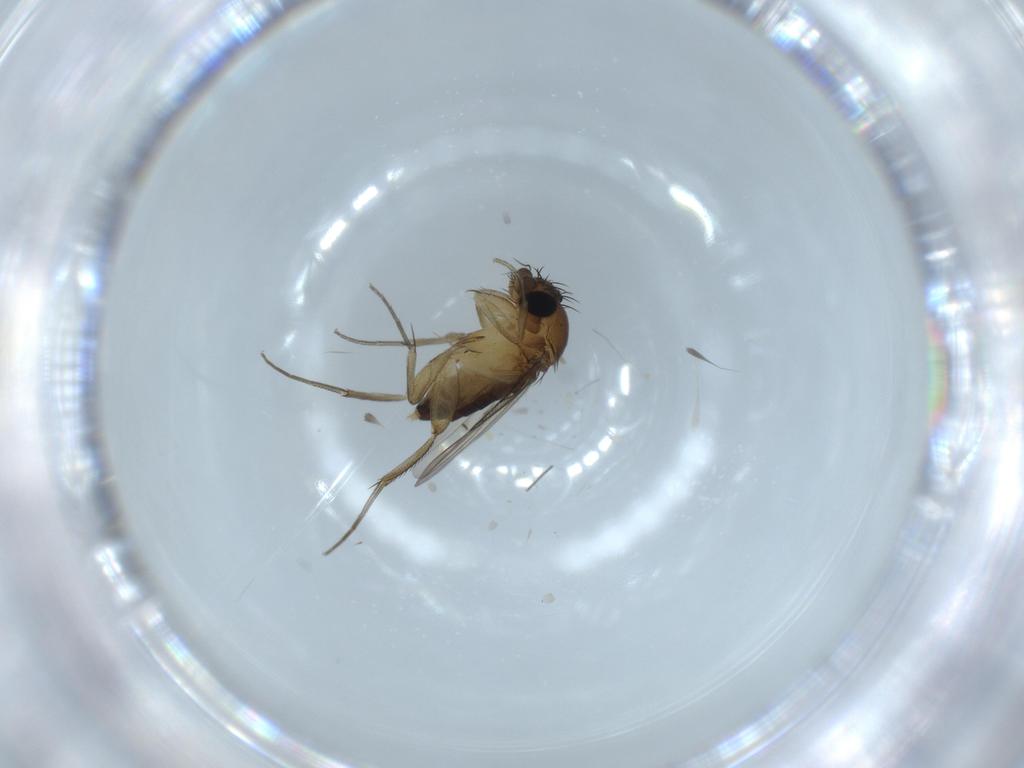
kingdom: Animalia
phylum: Arthropoda
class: Insecta
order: Diptera
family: Phoridae
